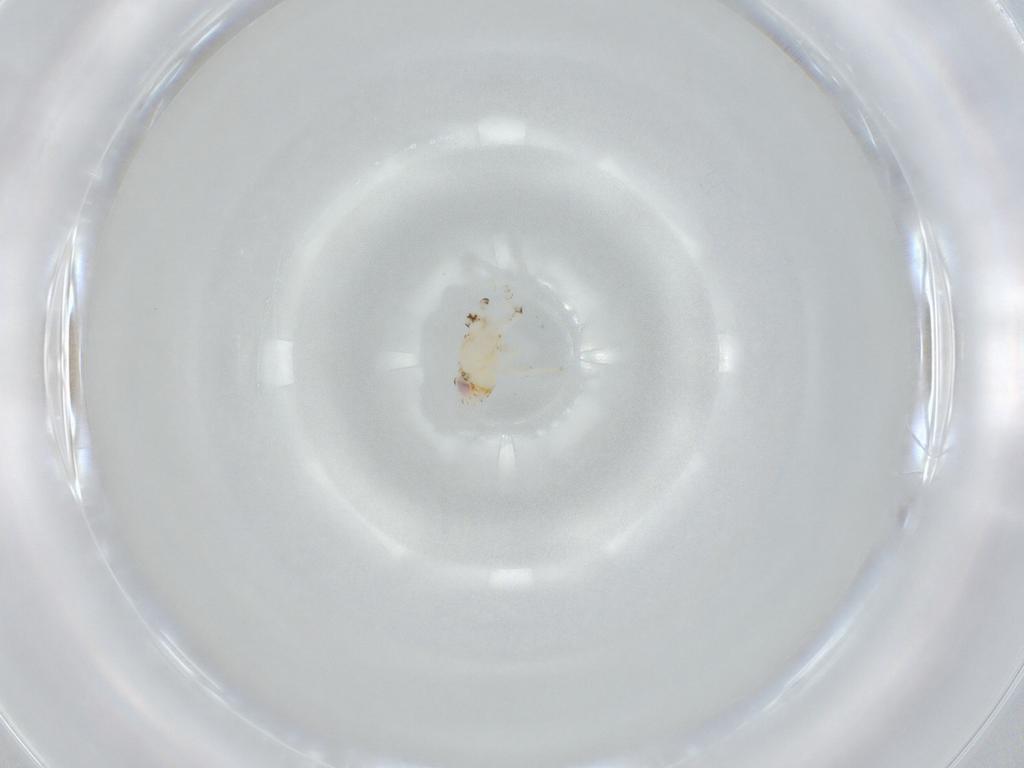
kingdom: Animalia
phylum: Arthropoda
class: Insecta
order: Hemiptera
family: Nogodinidae
